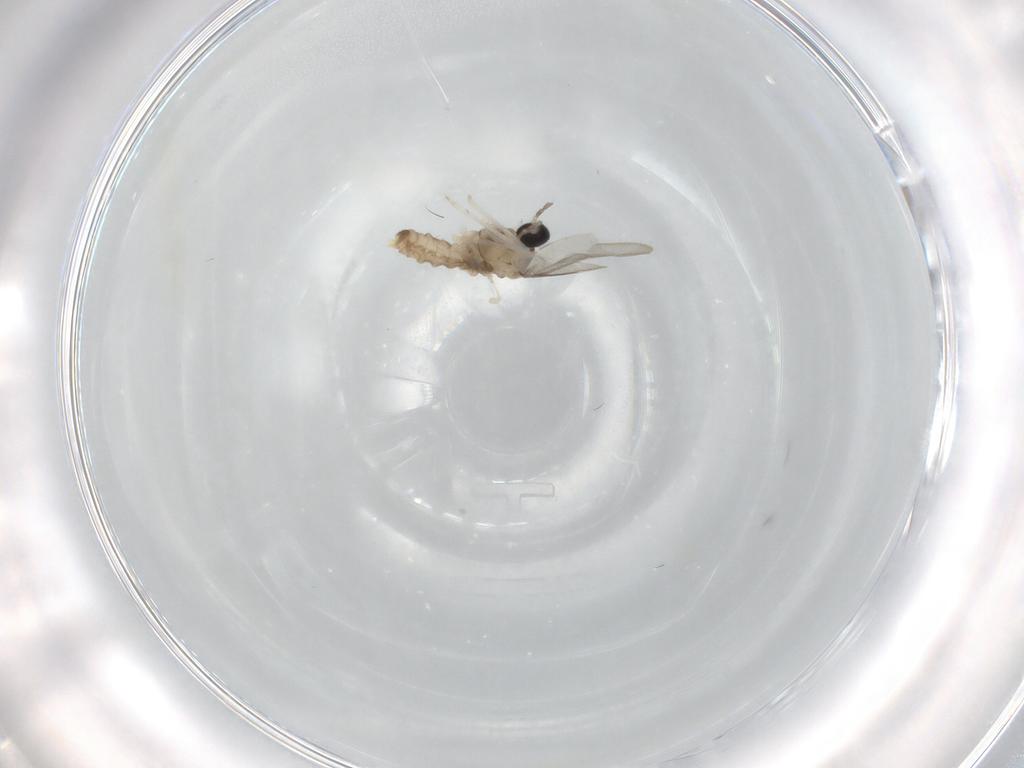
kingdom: Animalia
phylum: Arthropoda
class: Insecta
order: Diptera
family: Cecidomyiidae
